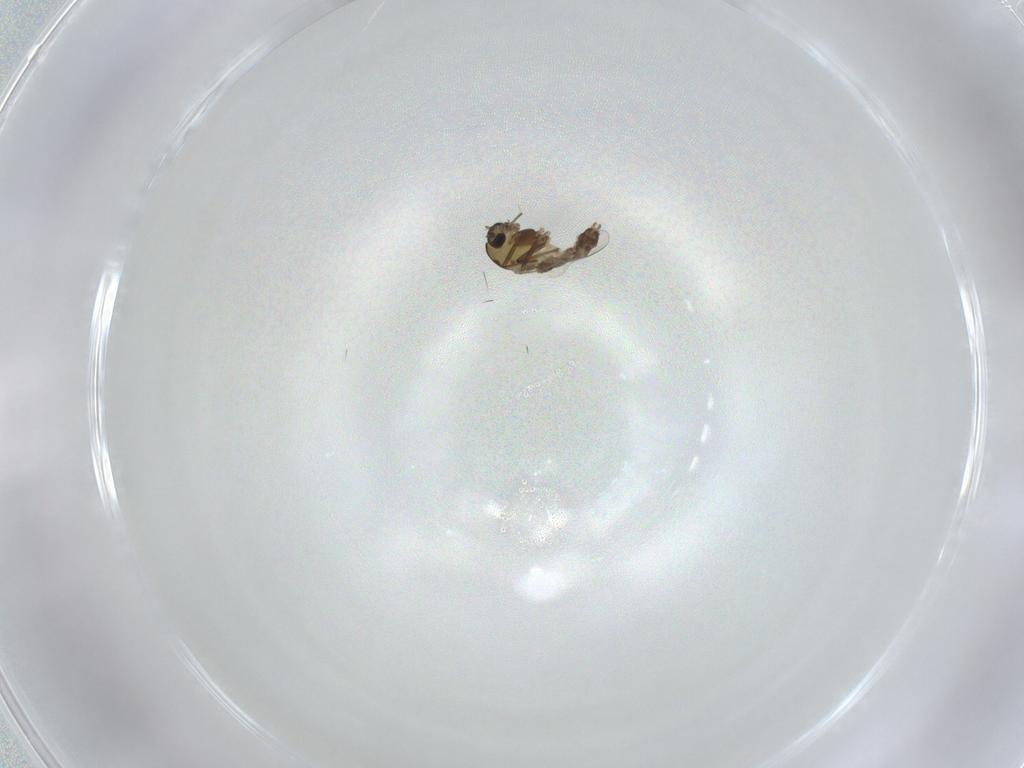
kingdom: Animalia
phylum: Arthropoda
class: Insecta
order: Diptera
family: Chironomidae
